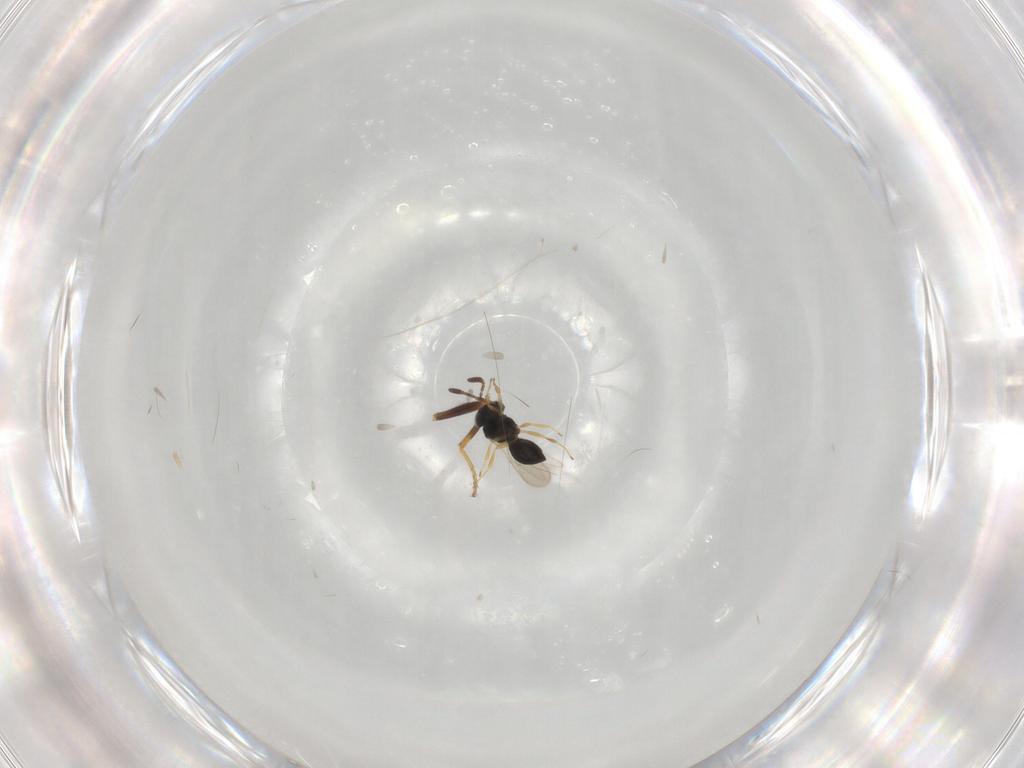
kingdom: Animalia
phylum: Arthropoda
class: Insecta
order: Hymenoptera
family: Scelionidae
